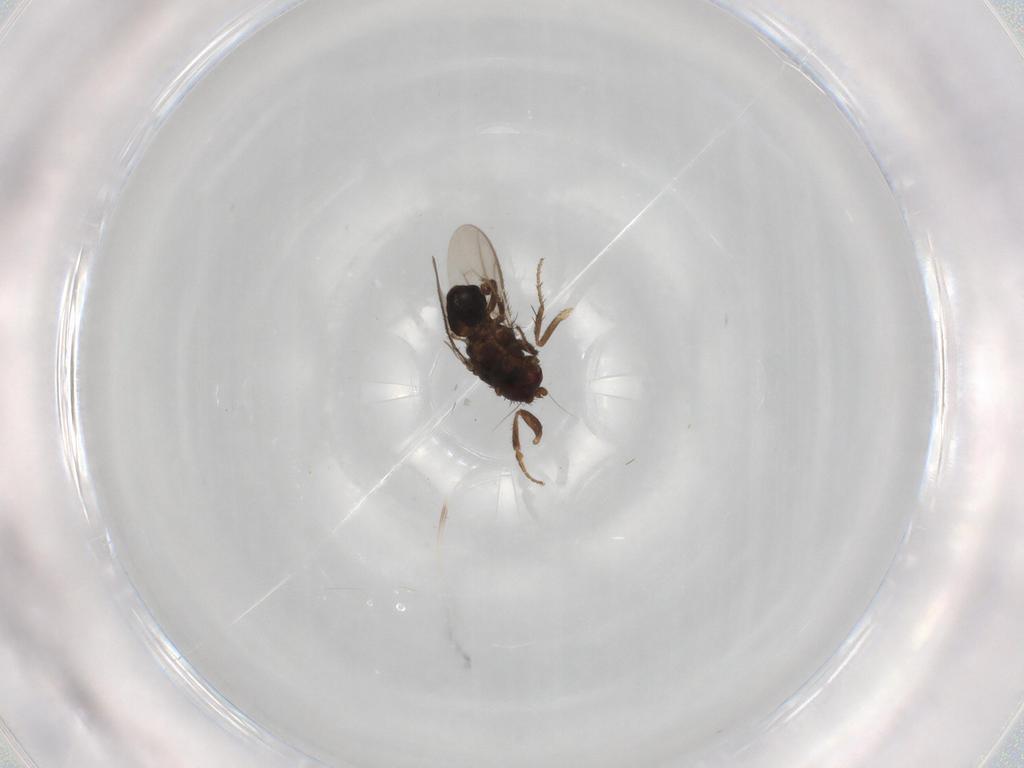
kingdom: Animalia
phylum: Arthropoda
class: Insecta
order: Diptera
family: Sphaeroceridae
